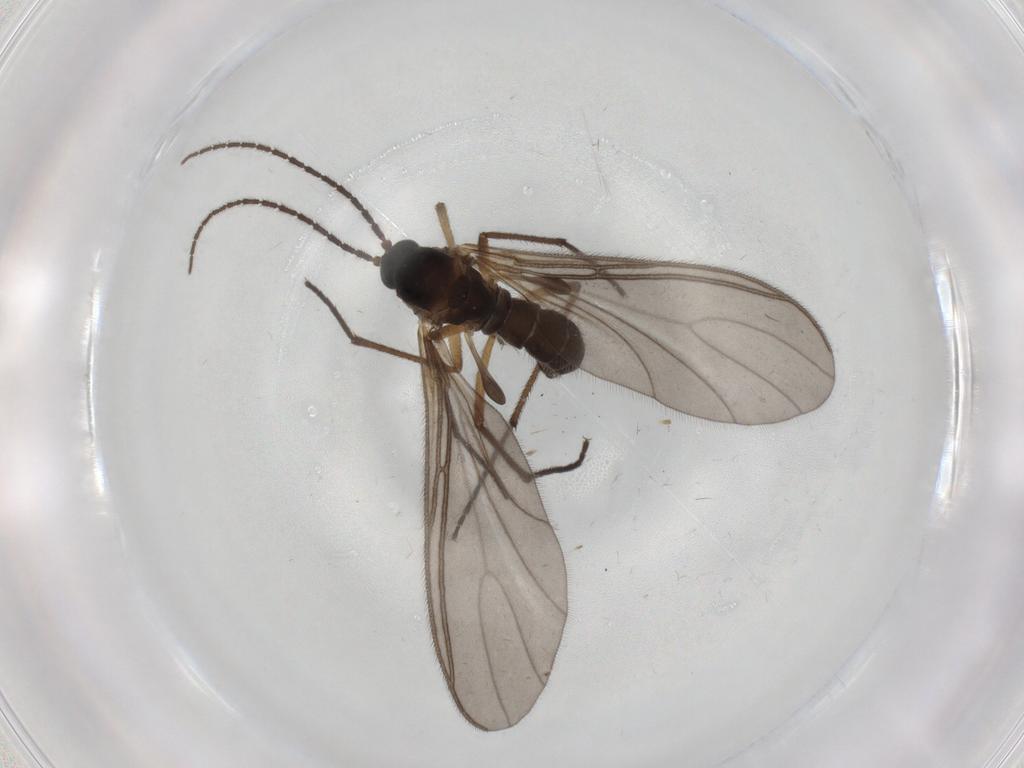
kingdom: Animalia
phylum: Arthropoda
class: Insecta
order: Diptera
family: Sciaridae
